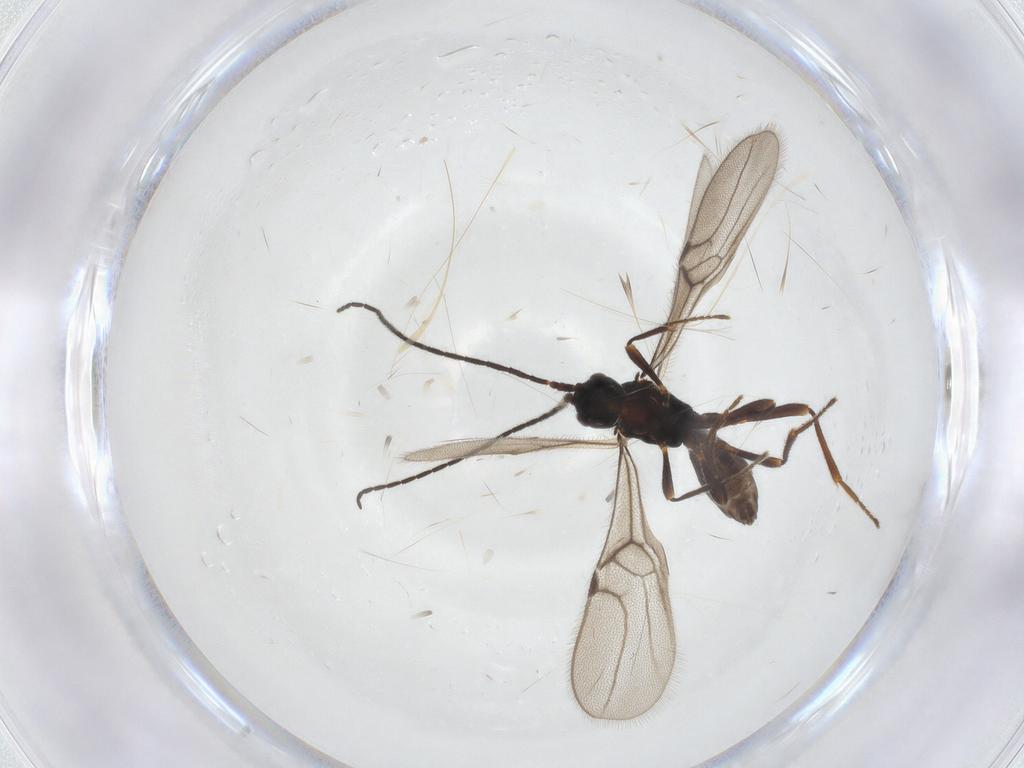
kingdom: Animalia
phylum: Arthropoda
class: Insecta
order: Hymenoptera
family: Braconidae
